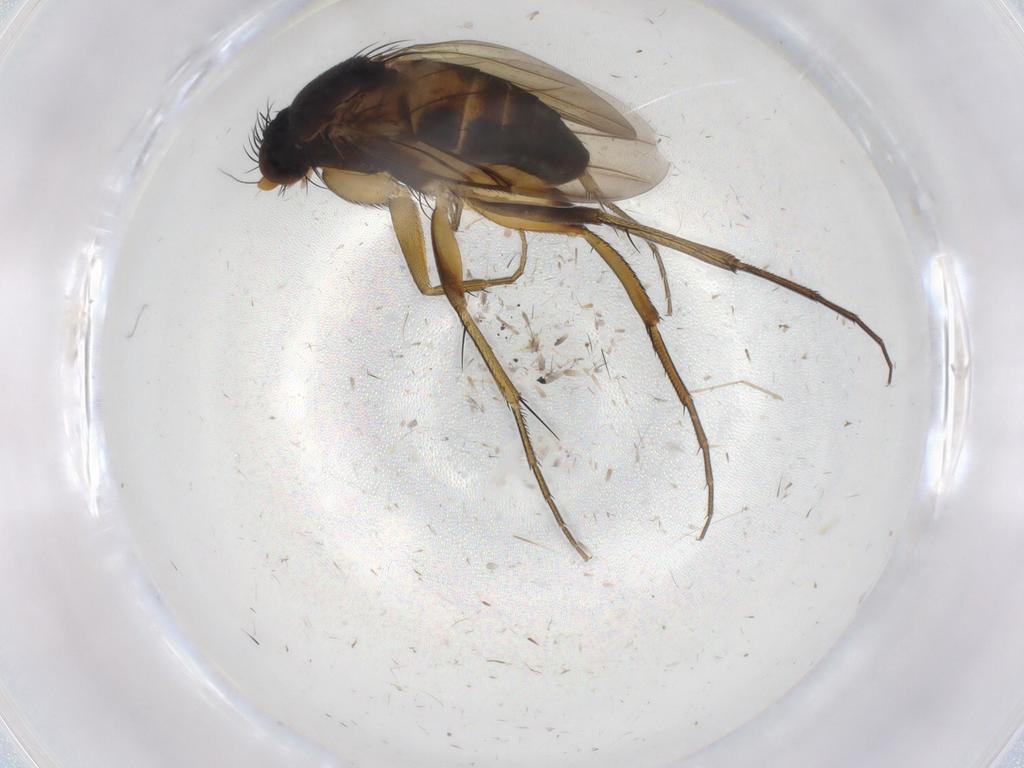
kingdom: Animalia
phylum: Arthropoda
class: Insecta
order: Diptera
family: Phoridae
